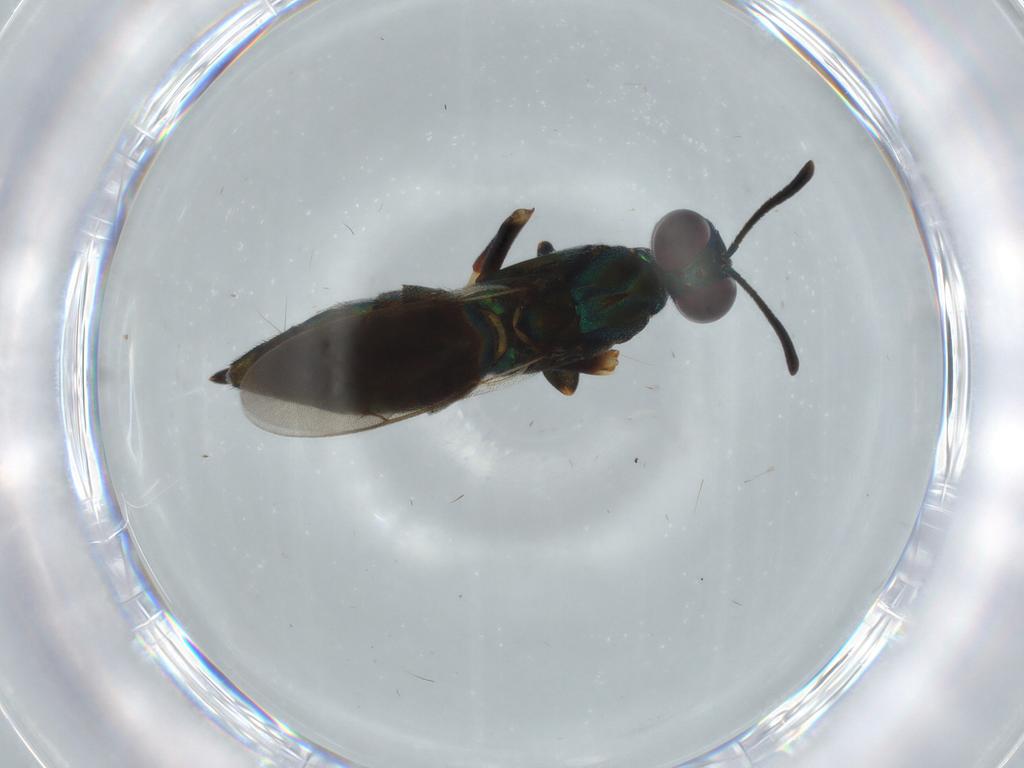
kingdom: Animalia
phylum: Arthropoda
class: Insecta
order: Hymenoptera
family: Eupelmidae
